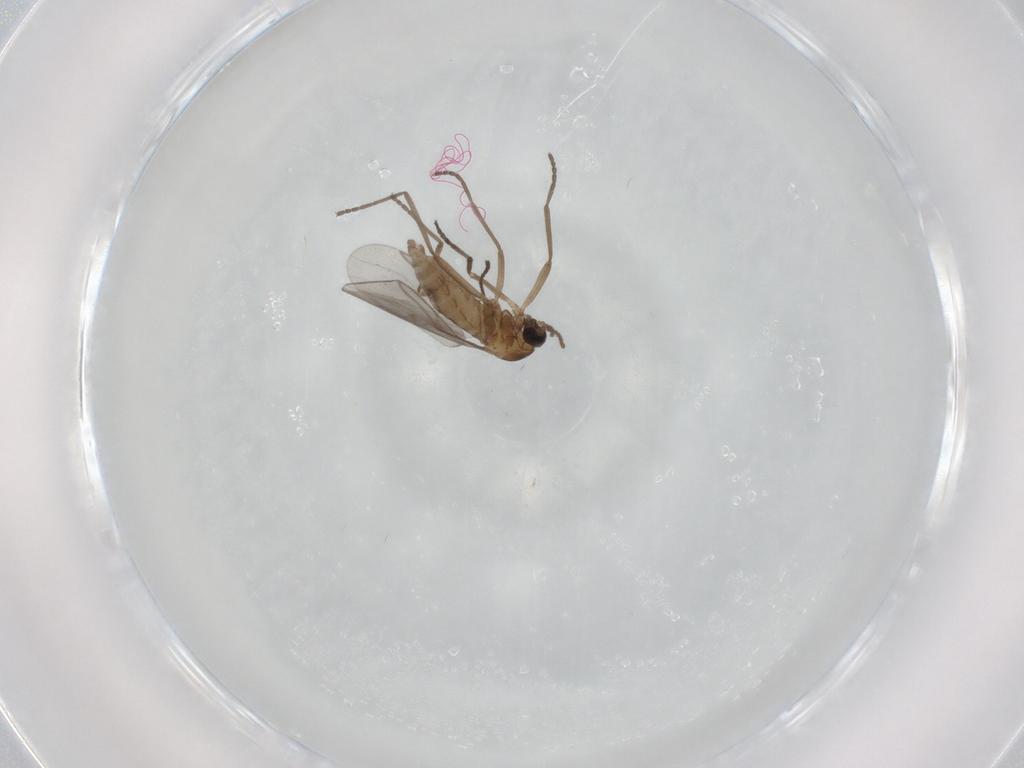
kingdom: Animalia
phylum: Arthropoda
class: Insecta
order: Diptera
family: Cecidomyiidae
